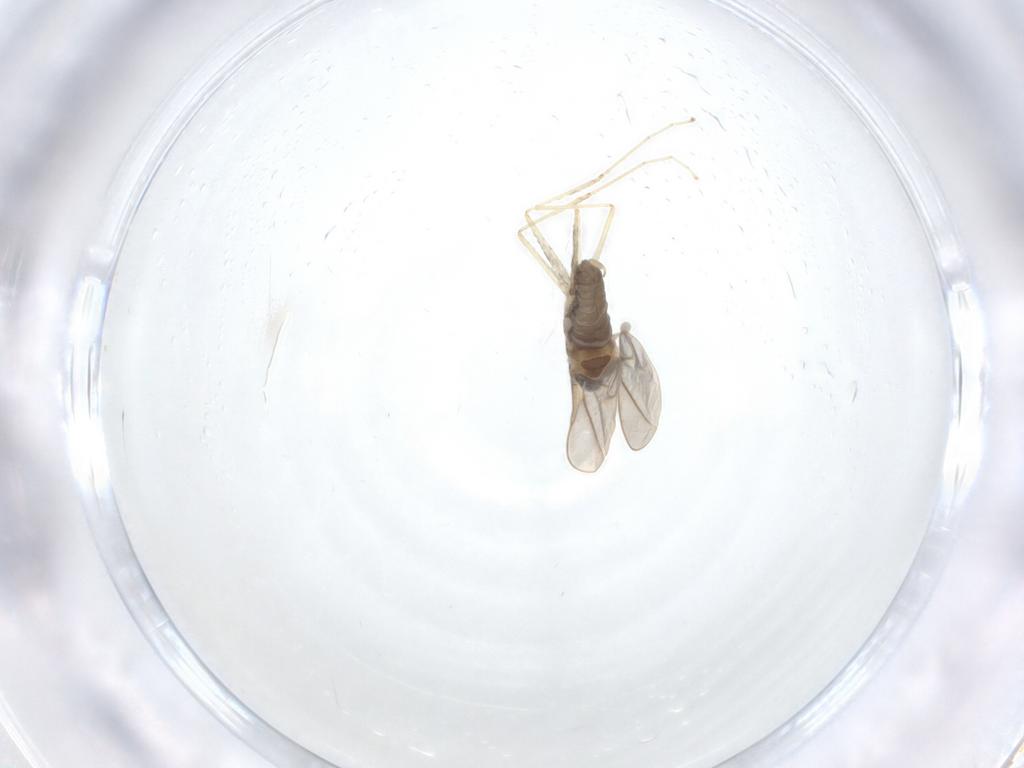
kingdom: Animalia
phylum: Arthropoda
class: Insecta
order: Diptera
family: Cecidomyiidae
